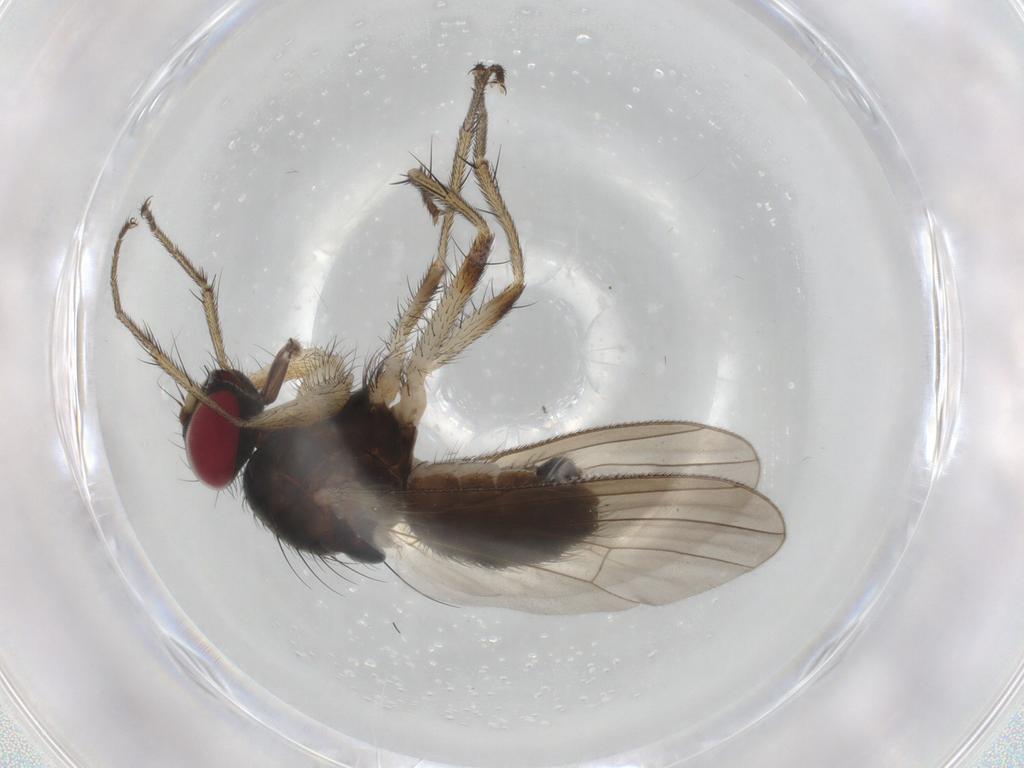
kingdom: Animalia
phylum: Arthropoda
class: Insecta
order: Diptera
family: Muscidae
